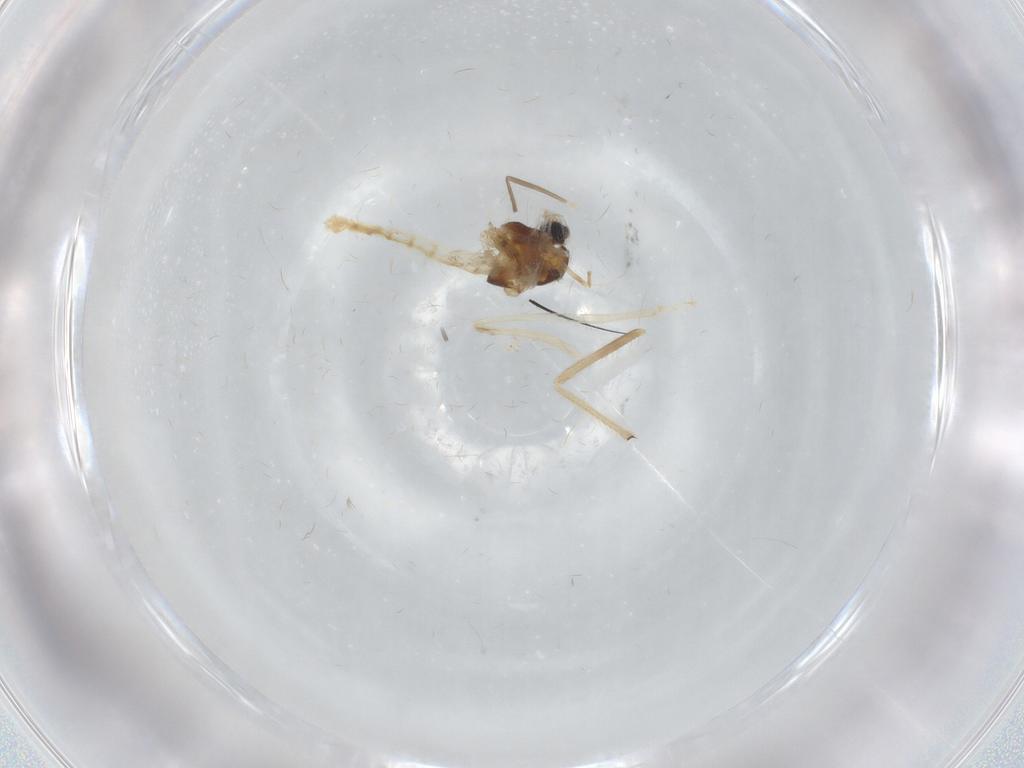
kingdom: Animalia
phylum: Arthropoda
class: Insecta
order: Diptera
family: Chironomidae
